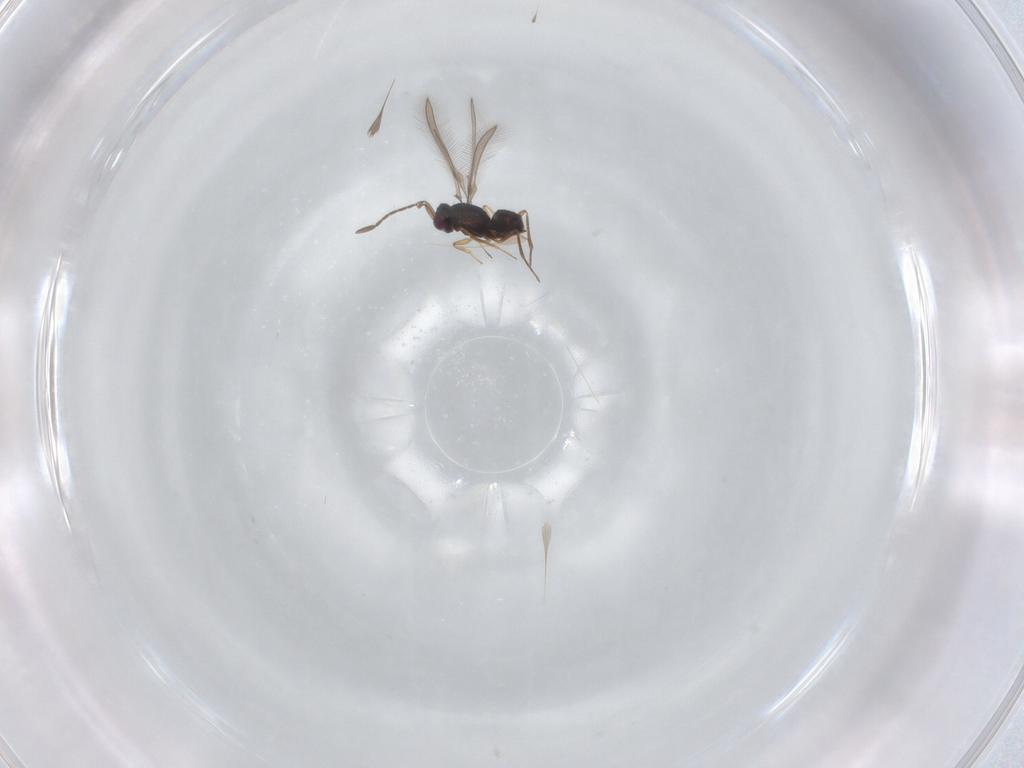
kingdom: Animalia
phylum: Arthropoda
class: Insecta
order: Hymenoptera
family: Mymaridae
